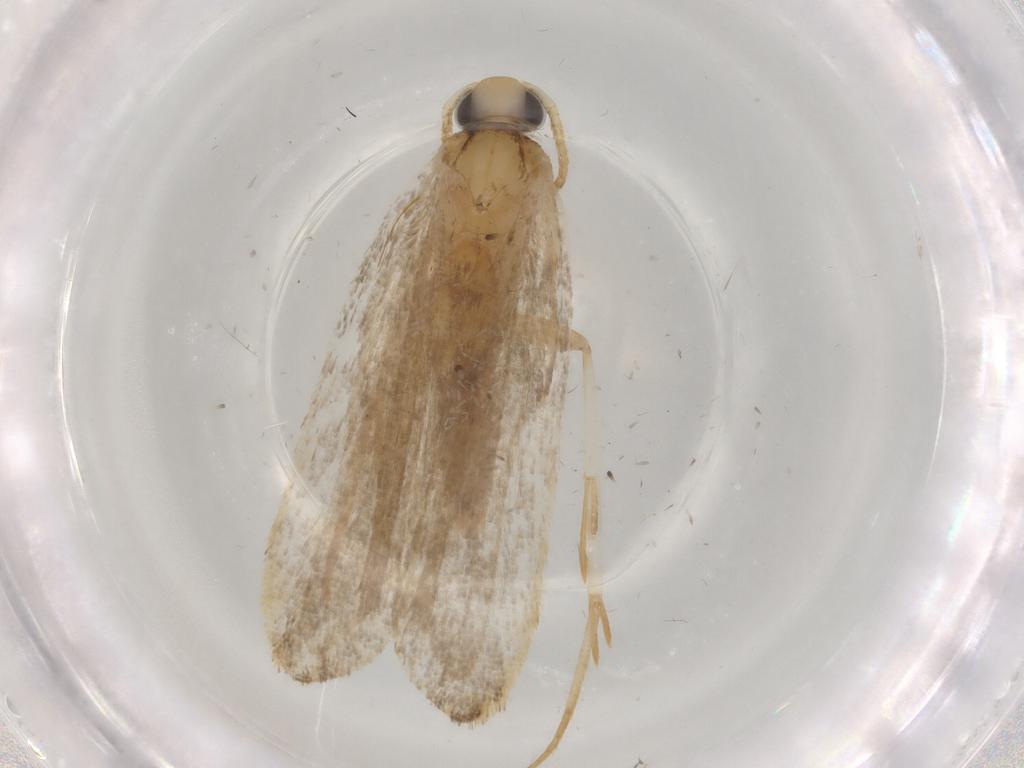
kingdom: Animalia
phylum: Arthropoda
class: Insecta
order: Lepidoptera
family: Autostichidae
